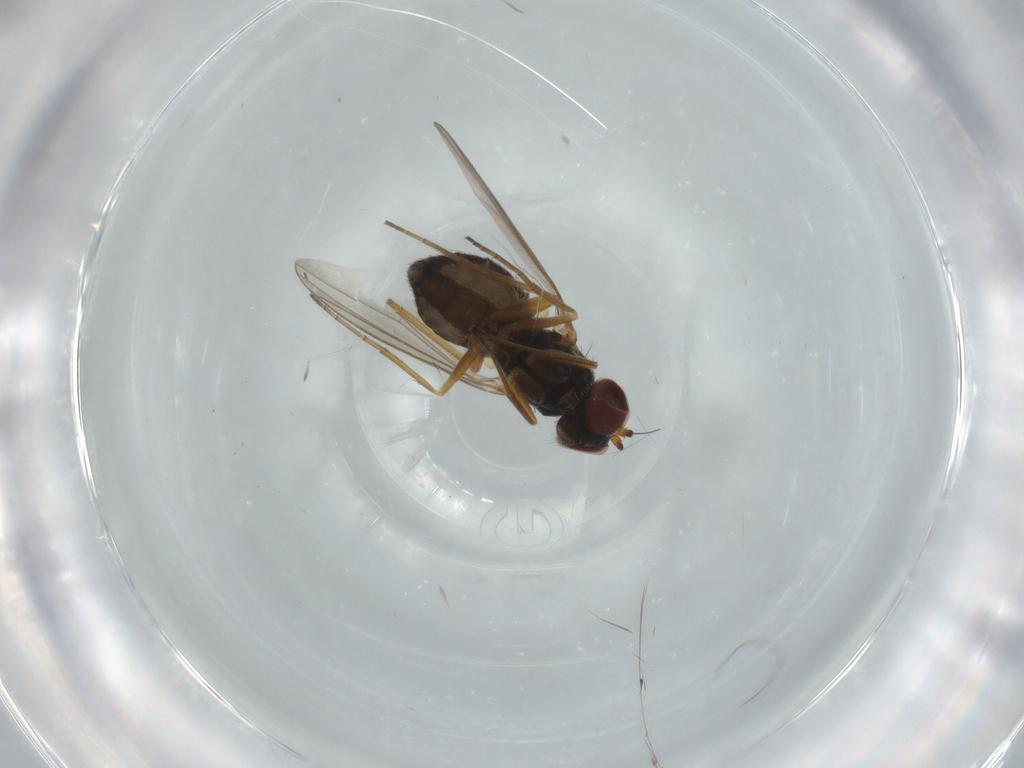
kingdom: Animalia
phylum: Arthropoda
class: Insecta
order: Diptera
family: Dolichopodidae
